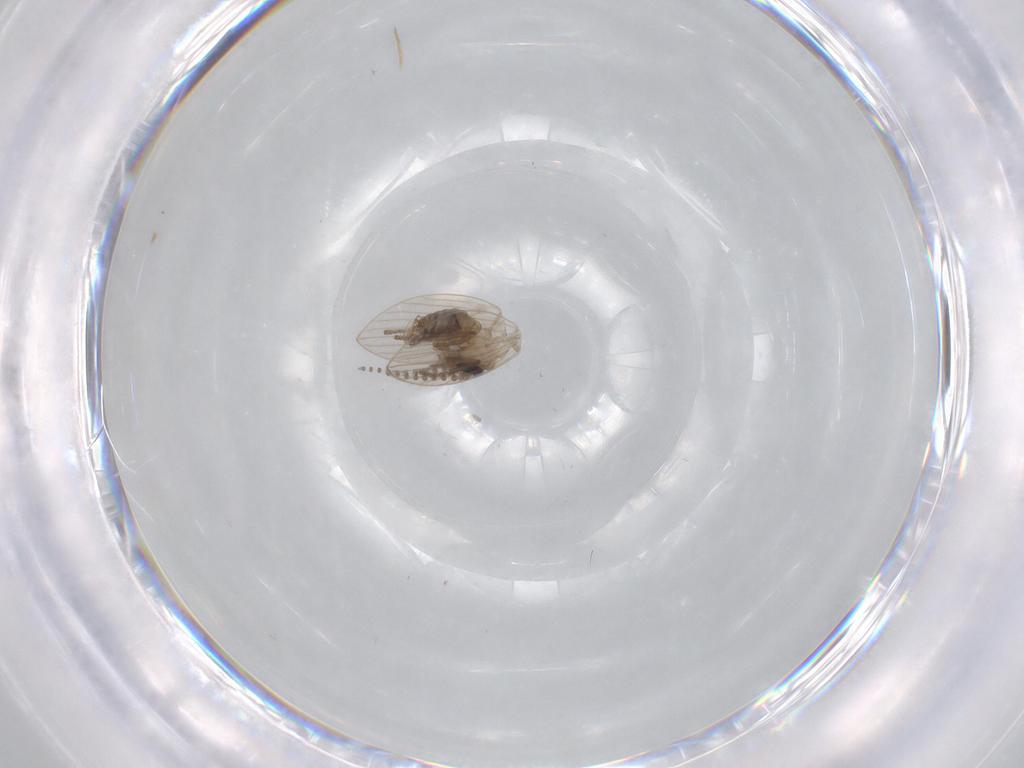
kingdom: Animalia
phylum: Arthropoda
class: Insecta
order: Diptera
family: Psychodidae
